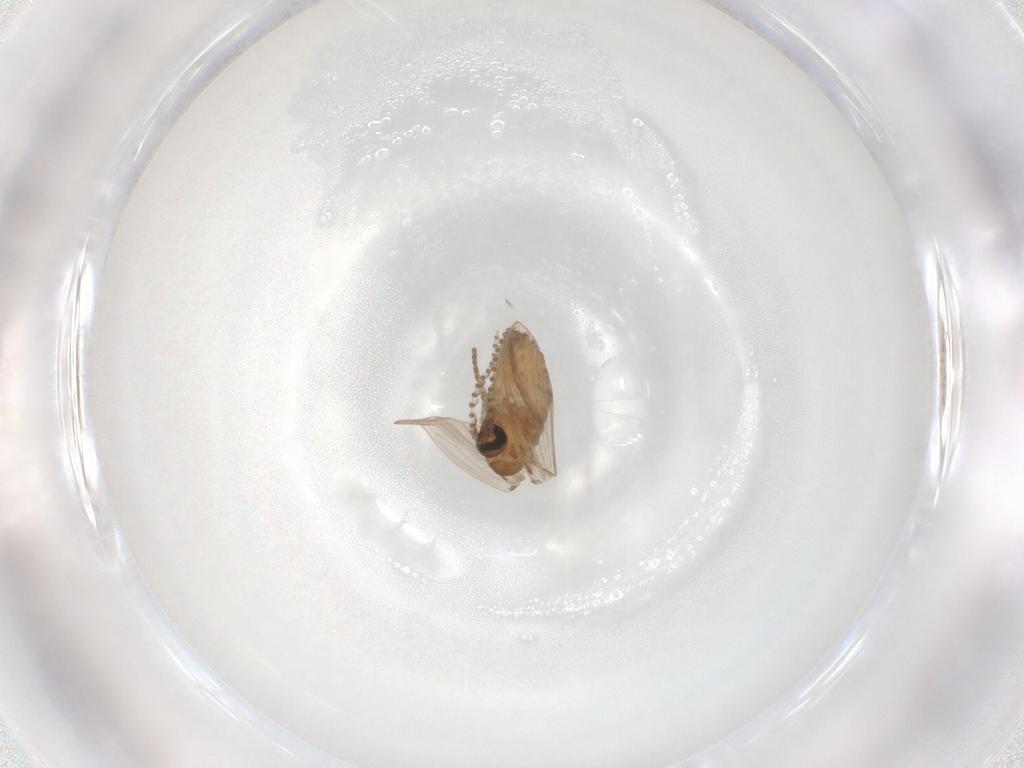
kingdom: Animalia
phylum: Arthropoda
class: Insecta
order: Diptera
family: Psychodidae
